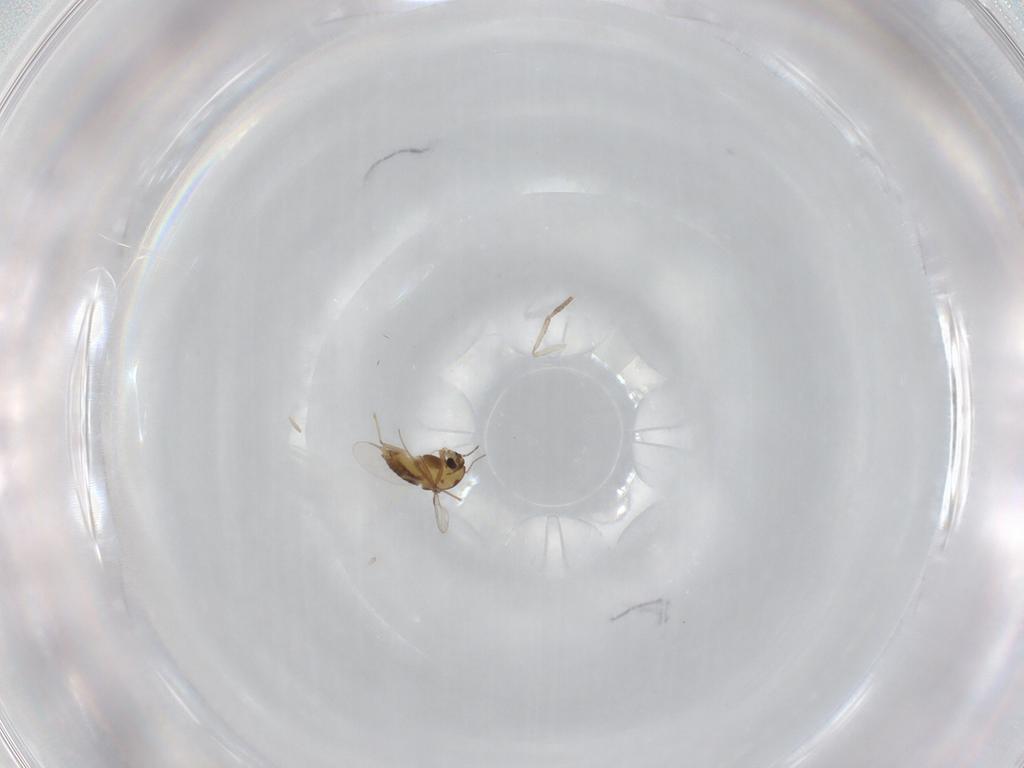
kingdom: Animalia
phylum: Arthropoda
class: Insecta
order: Diptera
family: Chironomidae
